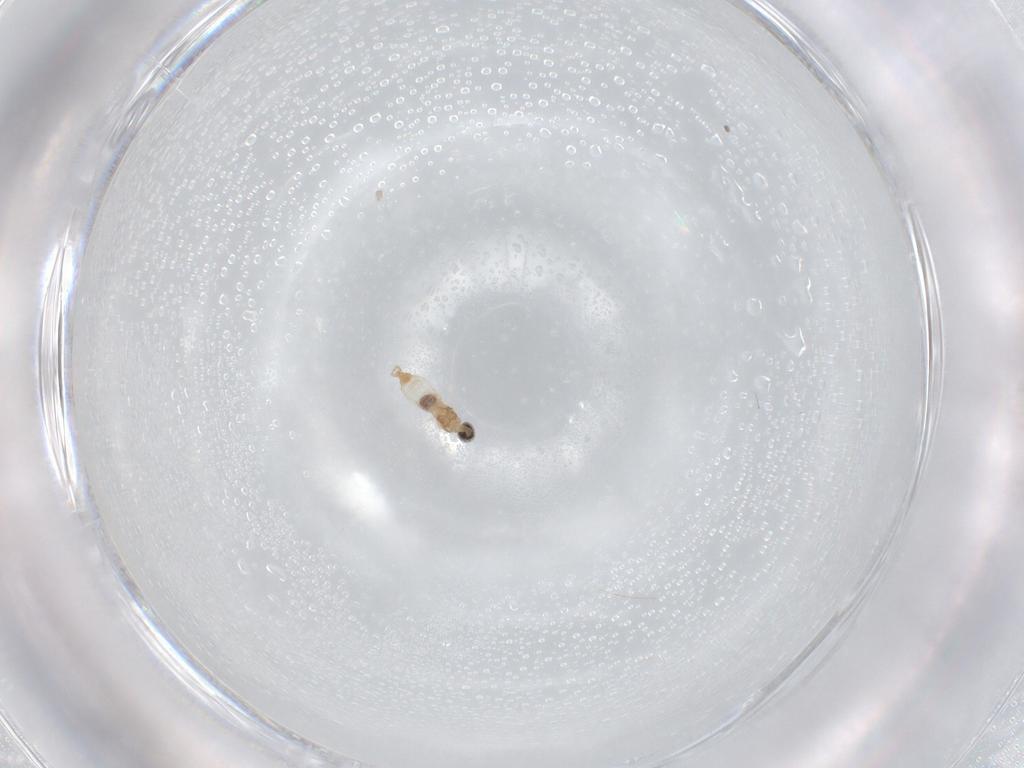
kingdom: Animalia
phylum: Arthropoda
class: Insecta
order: Diptera
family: Cecidomyiidae
